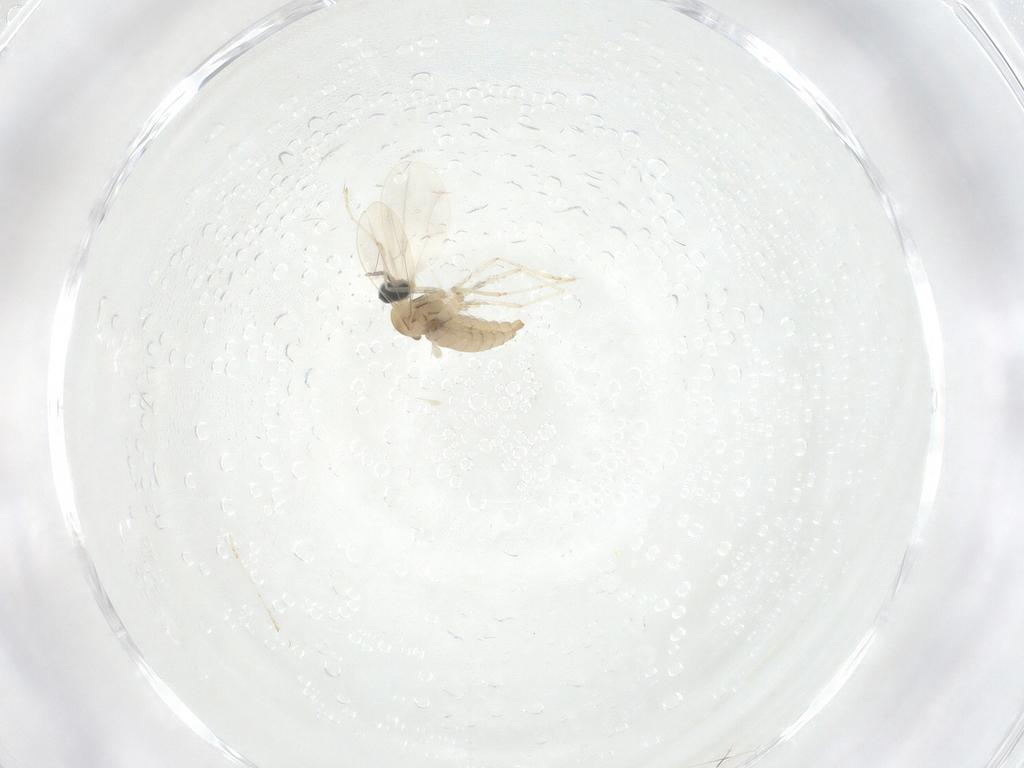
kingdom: Animalia
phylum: Arthropoda
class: Insecta
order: Diptera
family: Cecidomyiidae
